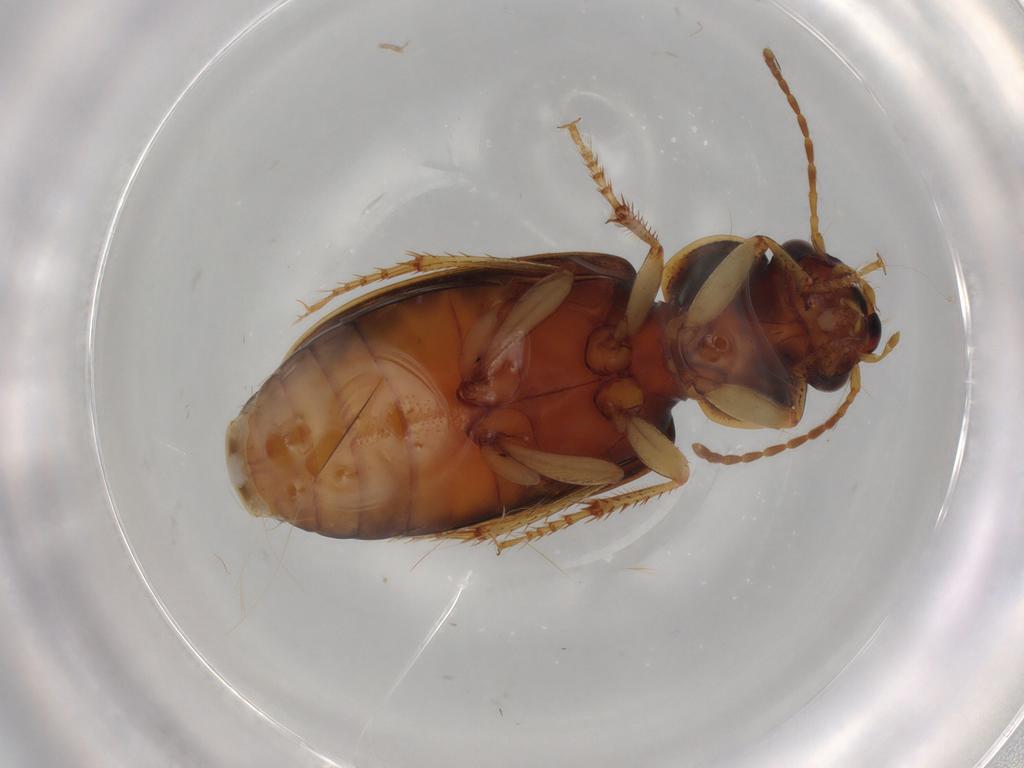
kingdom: Animalia
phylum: Arthropoda
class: Insecta
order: Coleoptera
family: Carabidae
